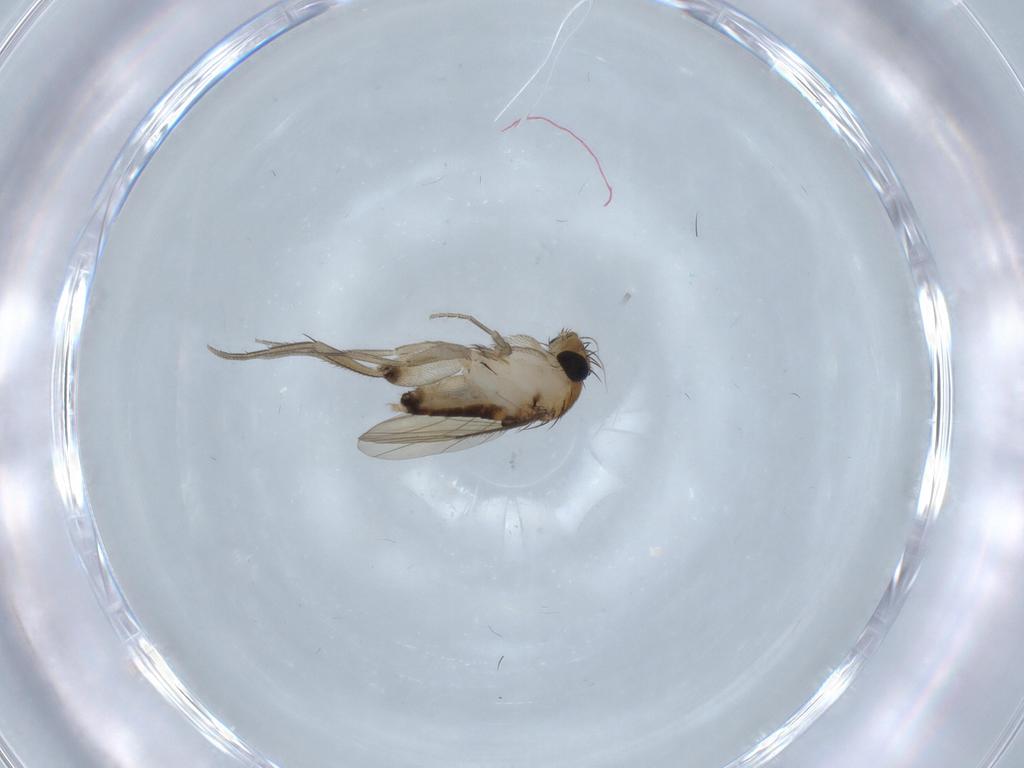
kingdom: Animalia
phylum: Arthropoda
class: Insecta
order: Diptera
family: Phoridae
